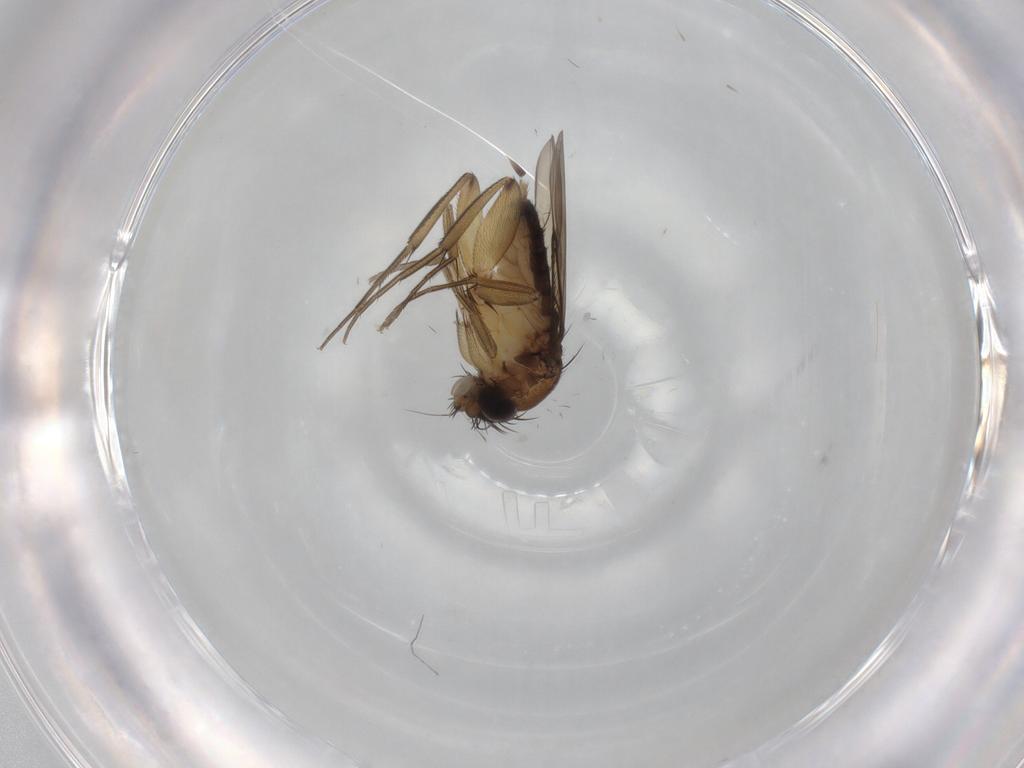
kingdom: Animalia
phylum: Arthropoda
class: Insecta
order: Diptera
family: Phoridae
